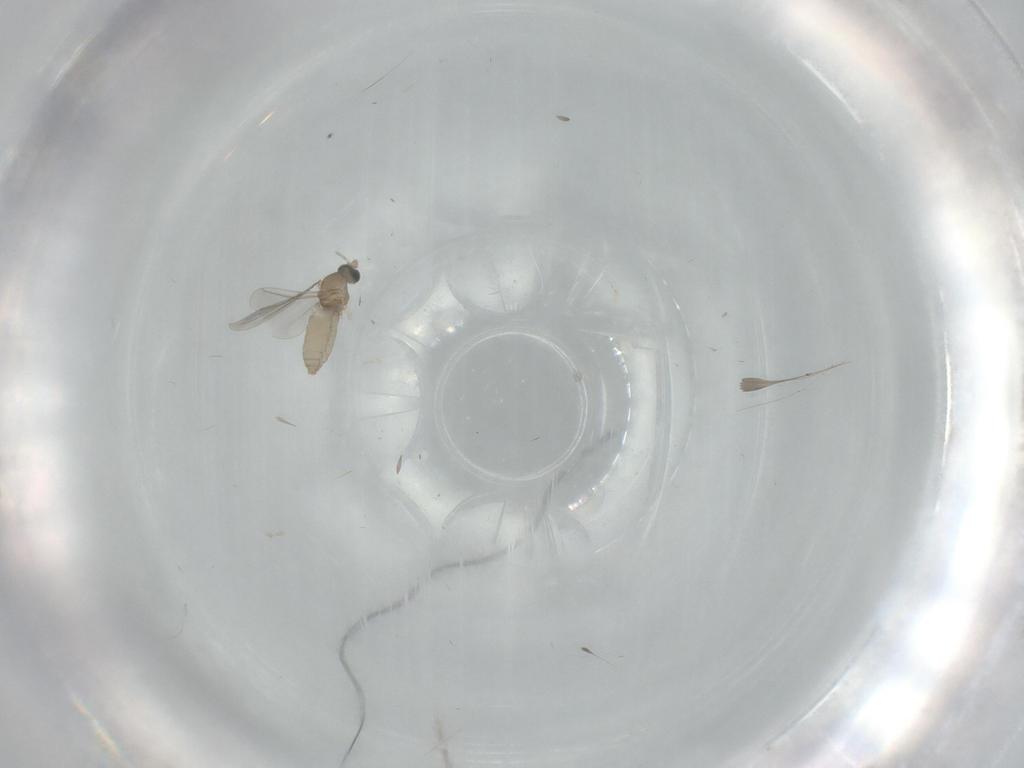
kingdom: Animalia
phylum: Arthropoda
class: Insecta
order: Diptera
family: Cecidomyiidae
